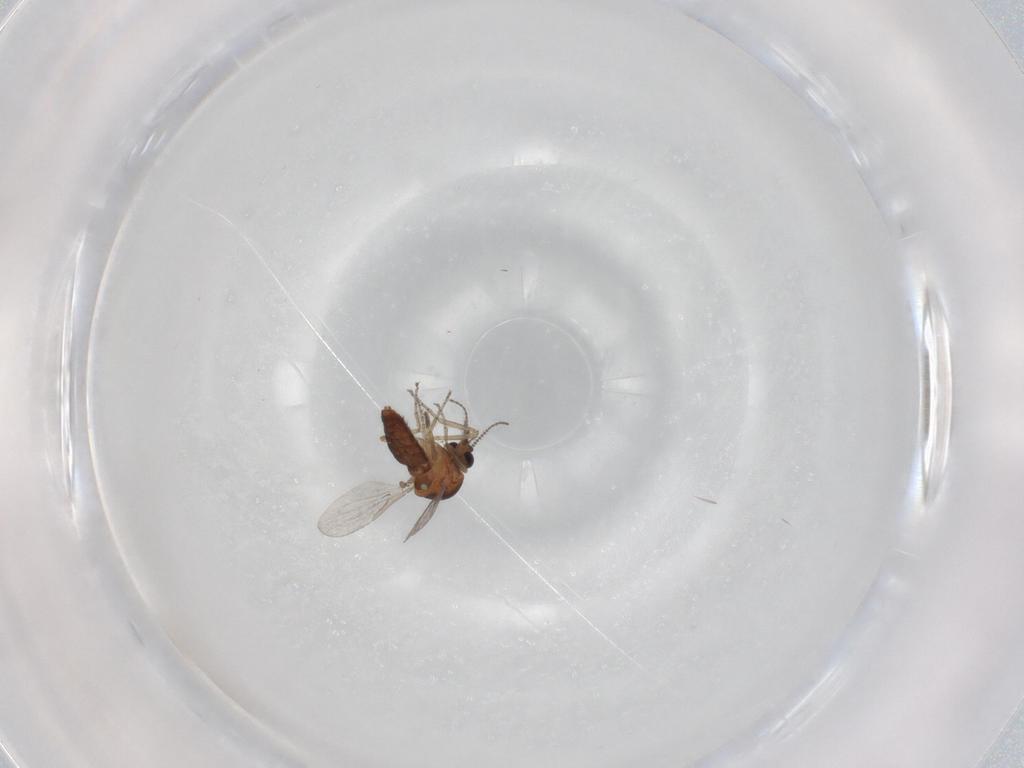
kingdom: Animalia
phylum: Arthropoda
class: Insecta
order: Diptera
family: Ceratopogonidae
